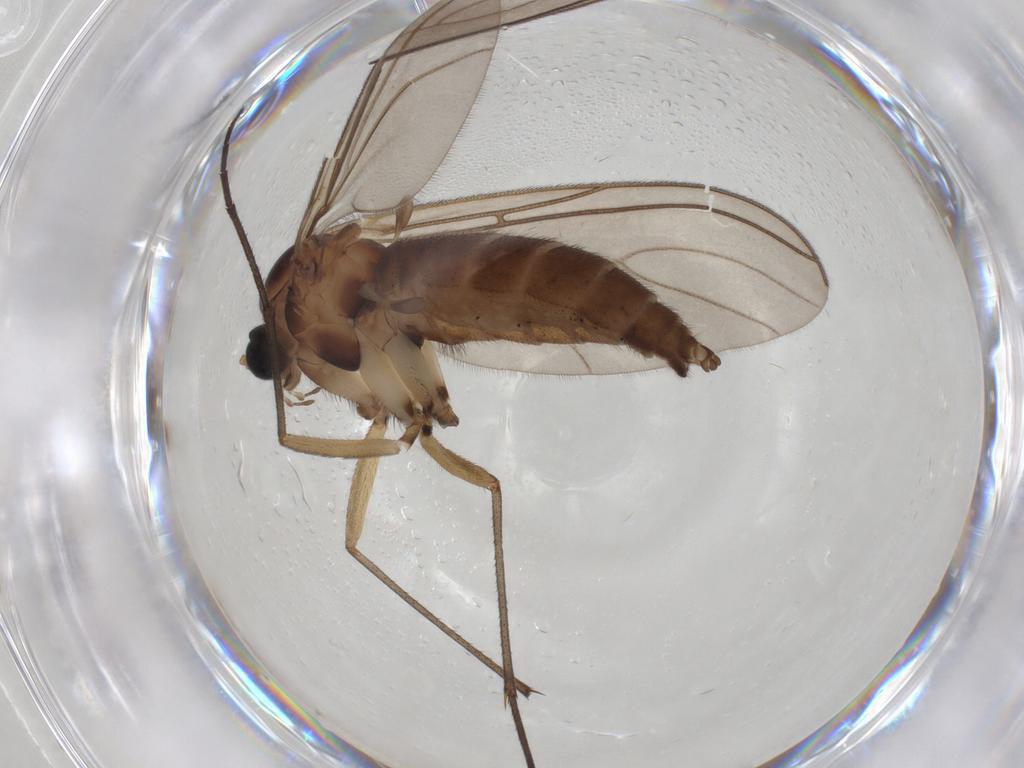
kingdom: Animalia
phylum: Arthropoda
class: Insecta
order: Diptera
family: Sciaridae
